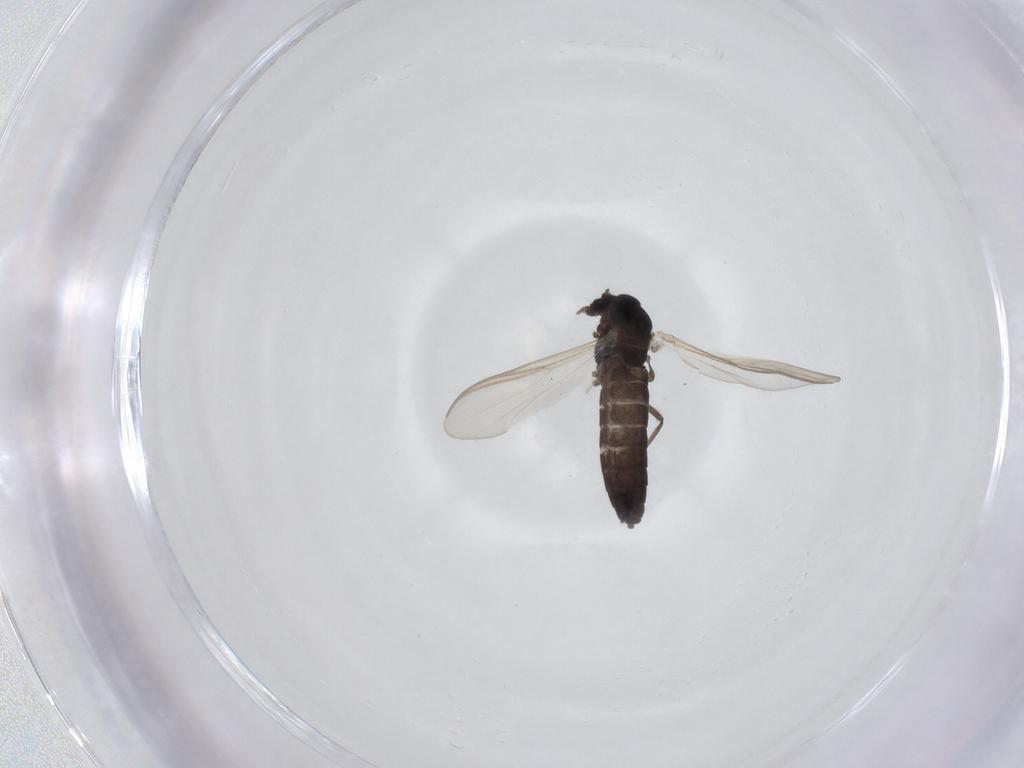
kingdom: Animalia
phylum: Arthropoda
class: Insecta
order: Diptera
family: Chironomidae
